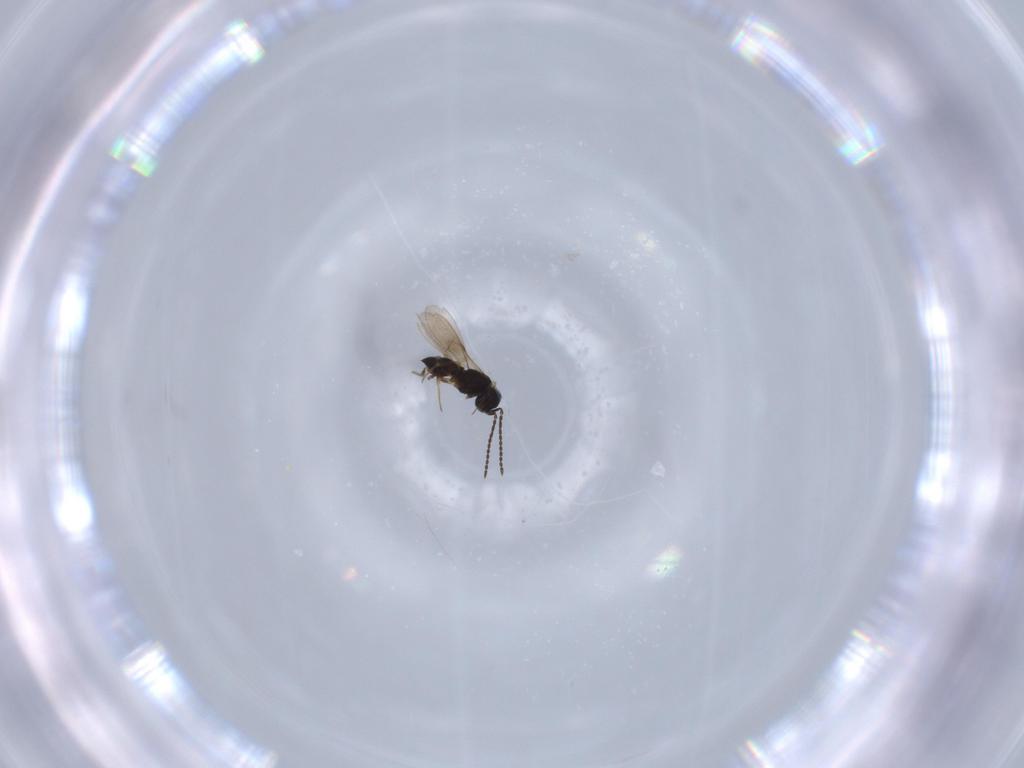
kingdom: Animalia
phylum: Arthropoda
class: Insecta
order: Hymenoptera
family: Scelionidae
